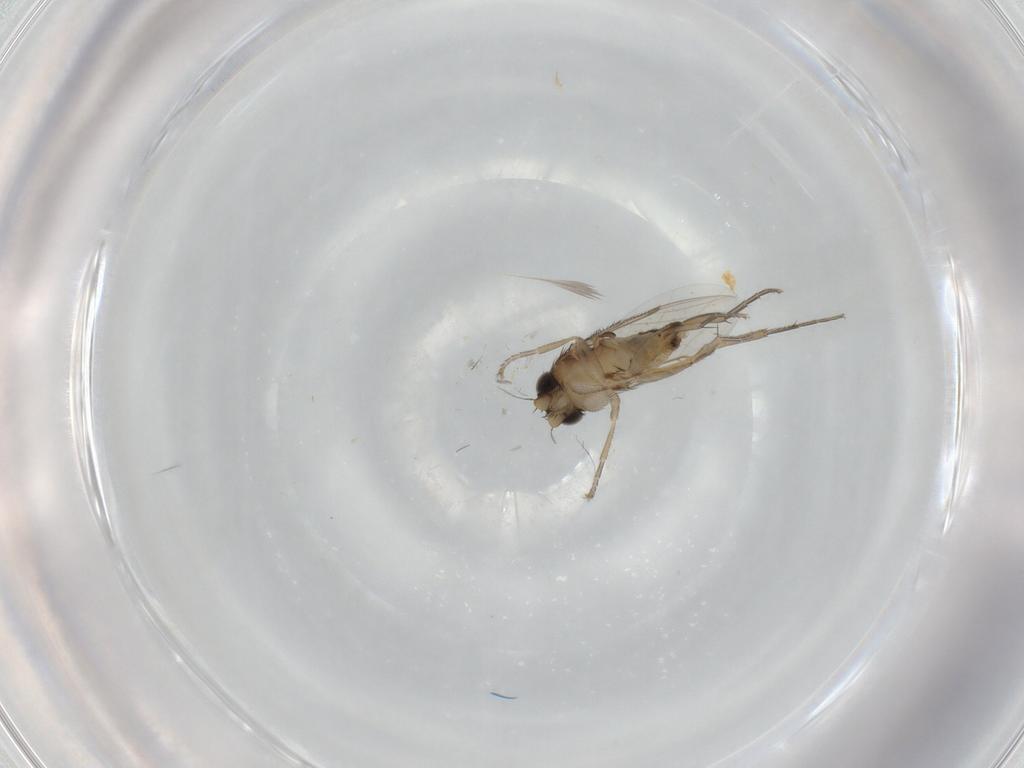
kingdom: Animalia
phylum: Arthropoda
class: Insecta
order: Diptera
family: Phoridae
